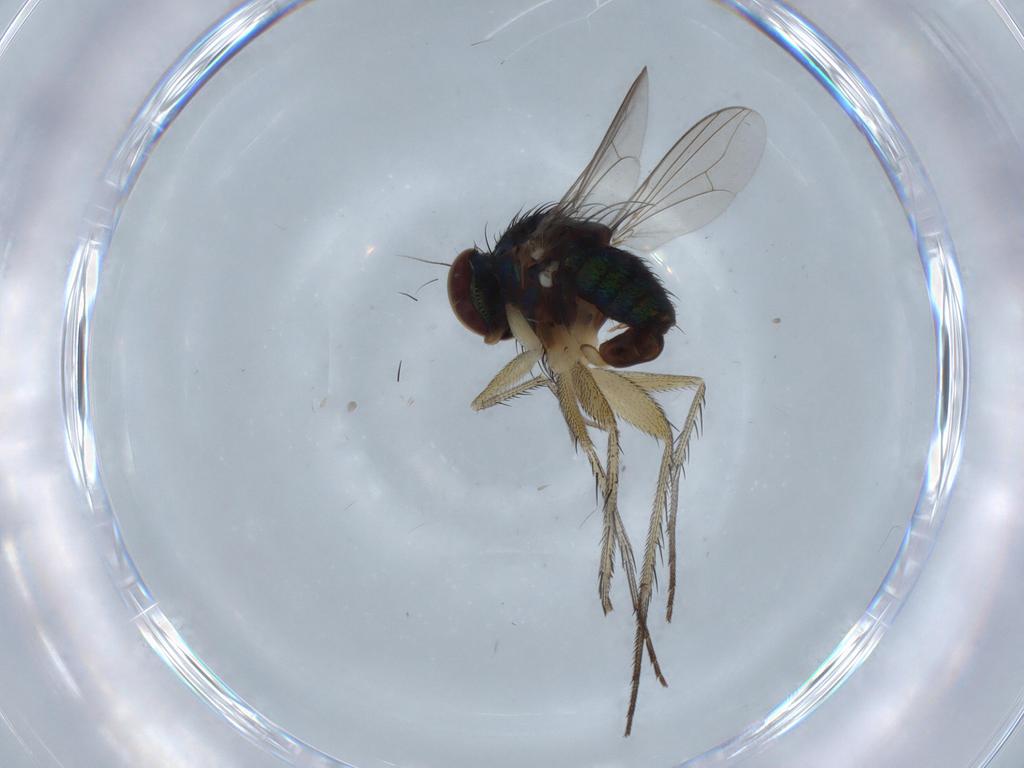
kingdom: Animalia
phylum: Arthropoda
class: Insecta
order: Diptera
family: Dolichopodidae
